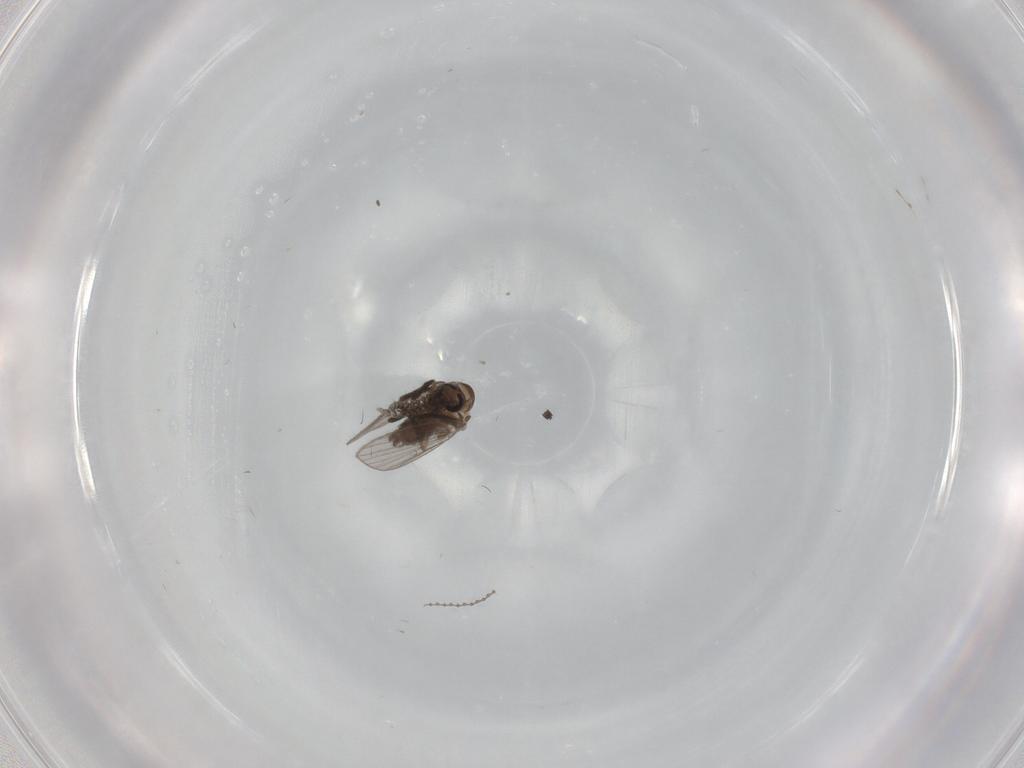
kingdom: Animalia
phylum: Arthropoda
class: Insecta
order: Diptera
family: Psychodidae
